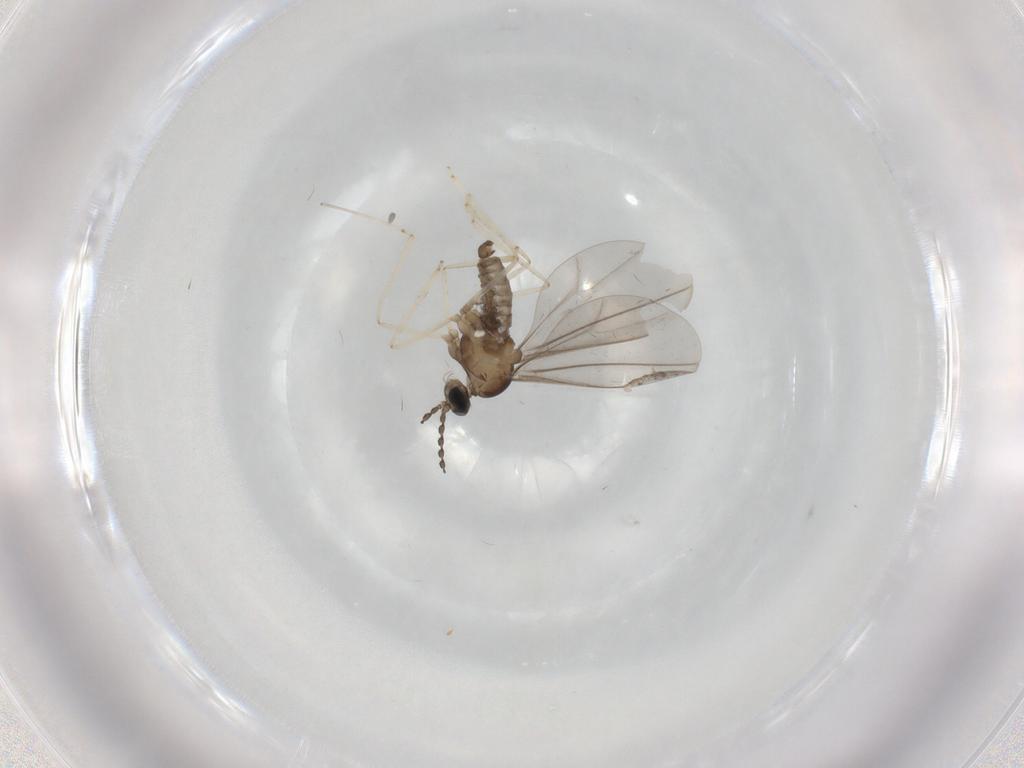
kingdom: Animalia
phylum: Arthropoda
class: Insecta
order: Diptera
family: Cecidomyiidae
